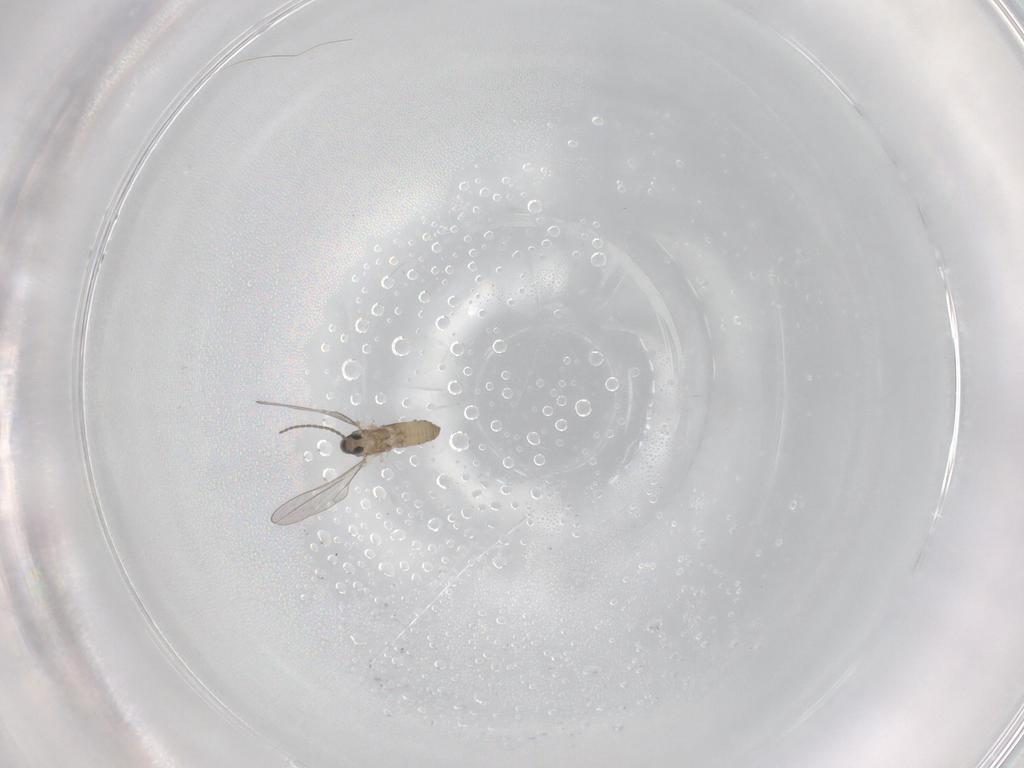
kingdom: Animalia
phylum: Arthropoda
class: Insecta
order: Diptera
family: Cecidomyiidae
